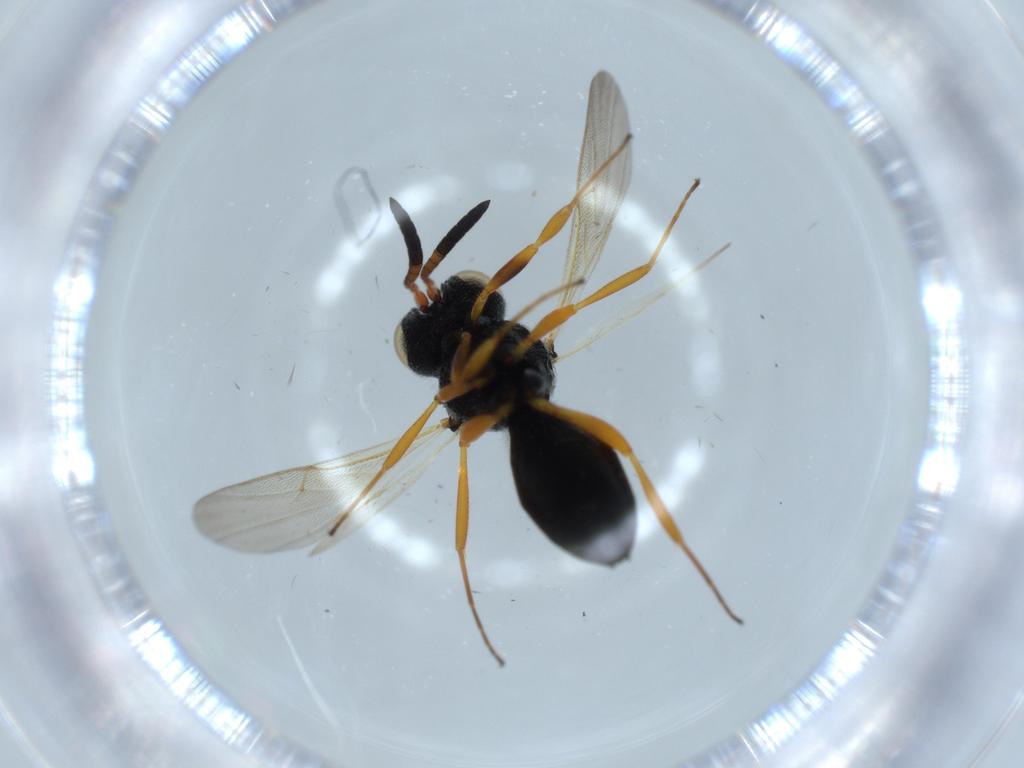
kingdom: Animalia
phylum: Arthropoda
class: Insecta
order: Hymenoptera
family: Scelionidae
